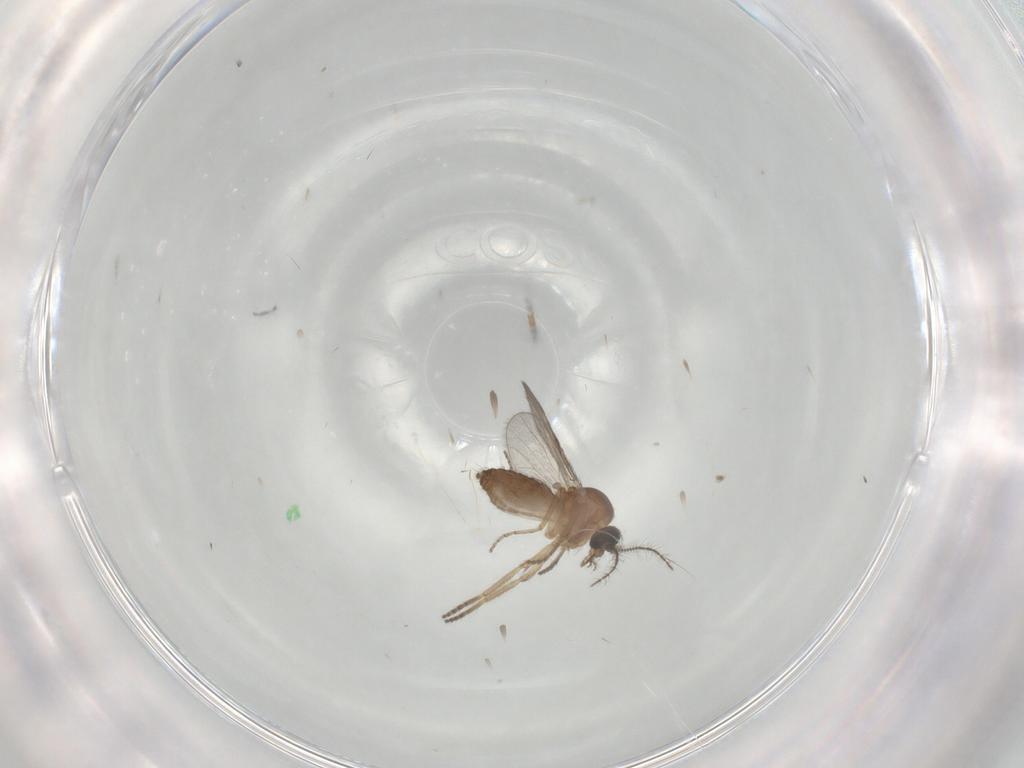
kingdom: Animalia
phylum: Arthropoda
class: Insecta
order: Diptera
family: Ceratopogonidae
